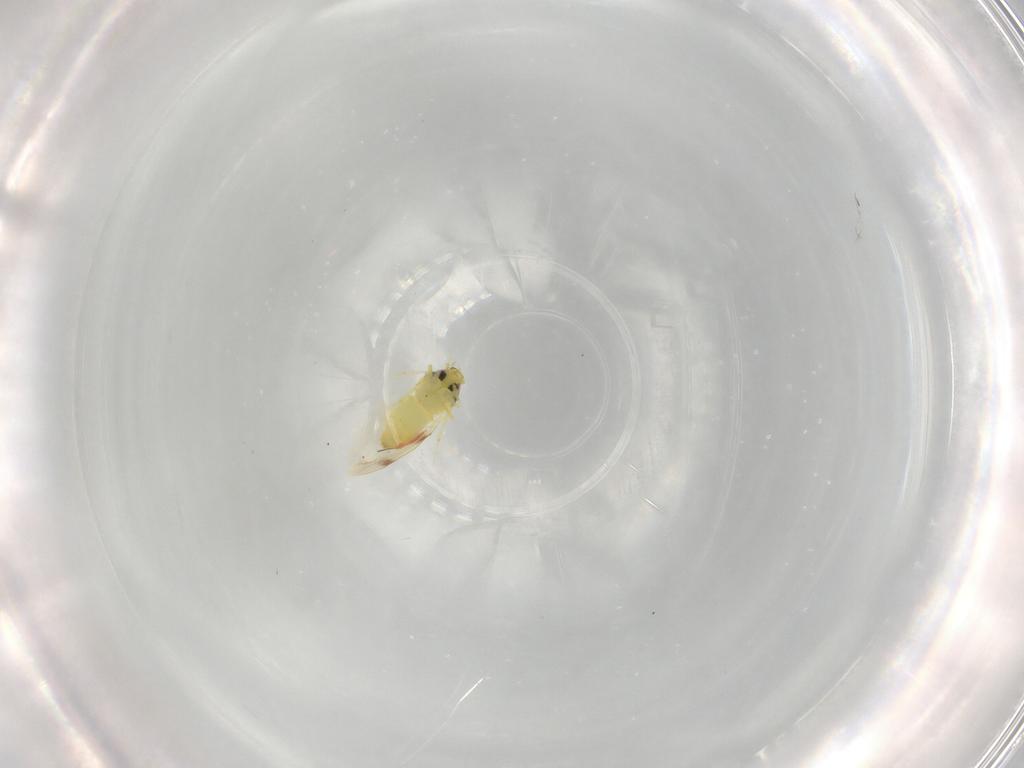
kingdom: Animalia
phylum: Arthropoda
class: Insecta
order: Hemiptera
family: Aleyrodidae
